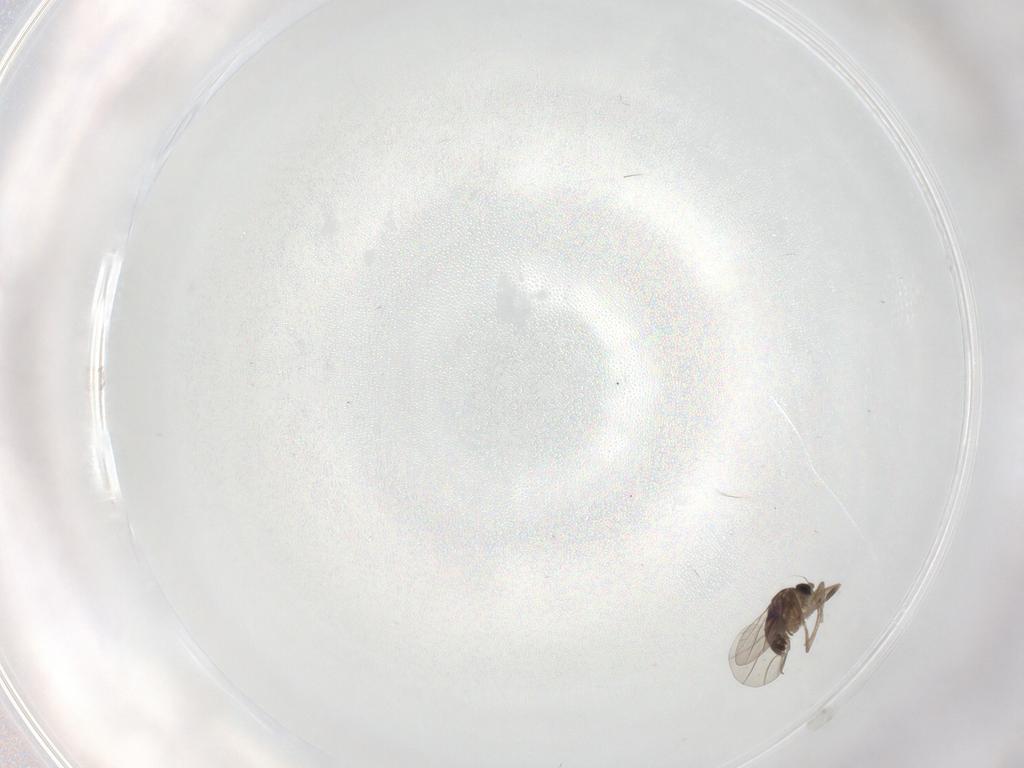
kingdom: Animalia
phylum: Arthropoda
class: Insecta
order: Diptera
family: Phoridae
